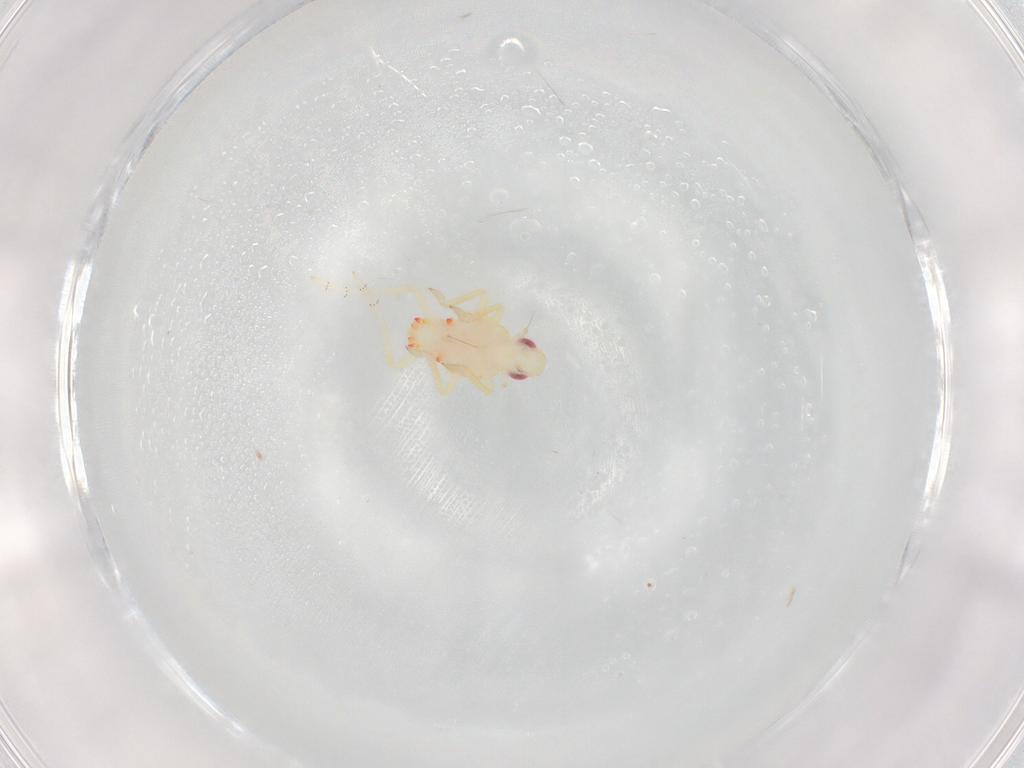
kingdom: Animalia
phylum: Arthropoda
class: Insecta
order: Hemiptera
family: Tropiduchidae
